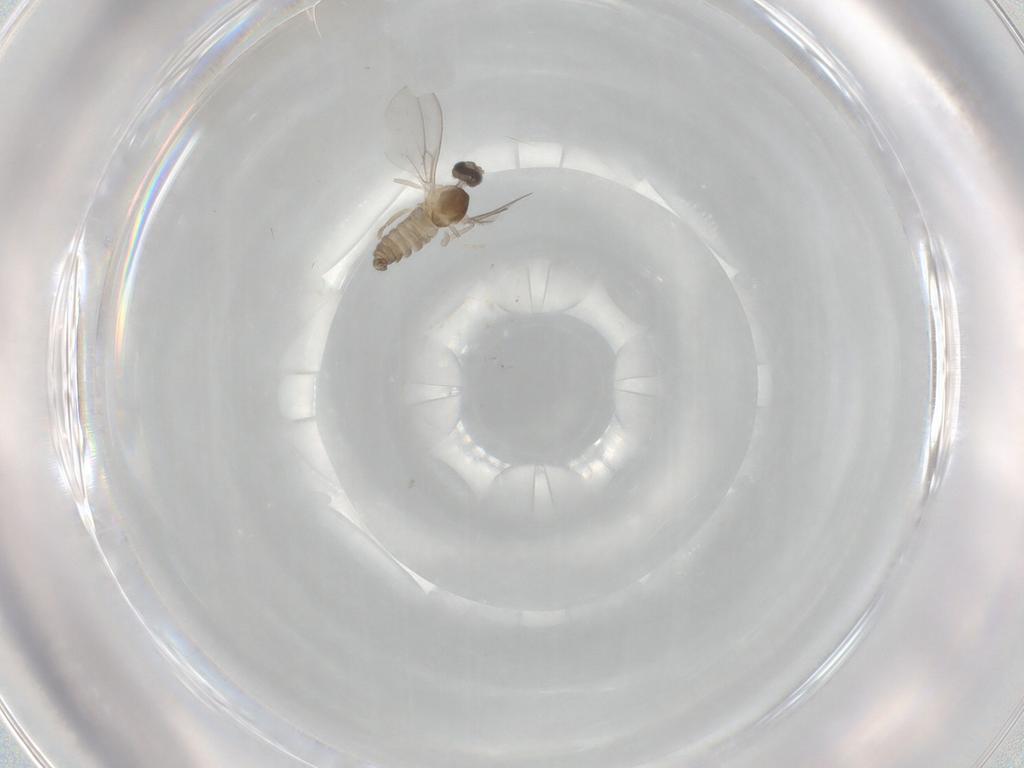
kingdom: Animalia
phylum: Arthropoda
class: Insecta
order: Diptera
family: Cecidomyiidae
